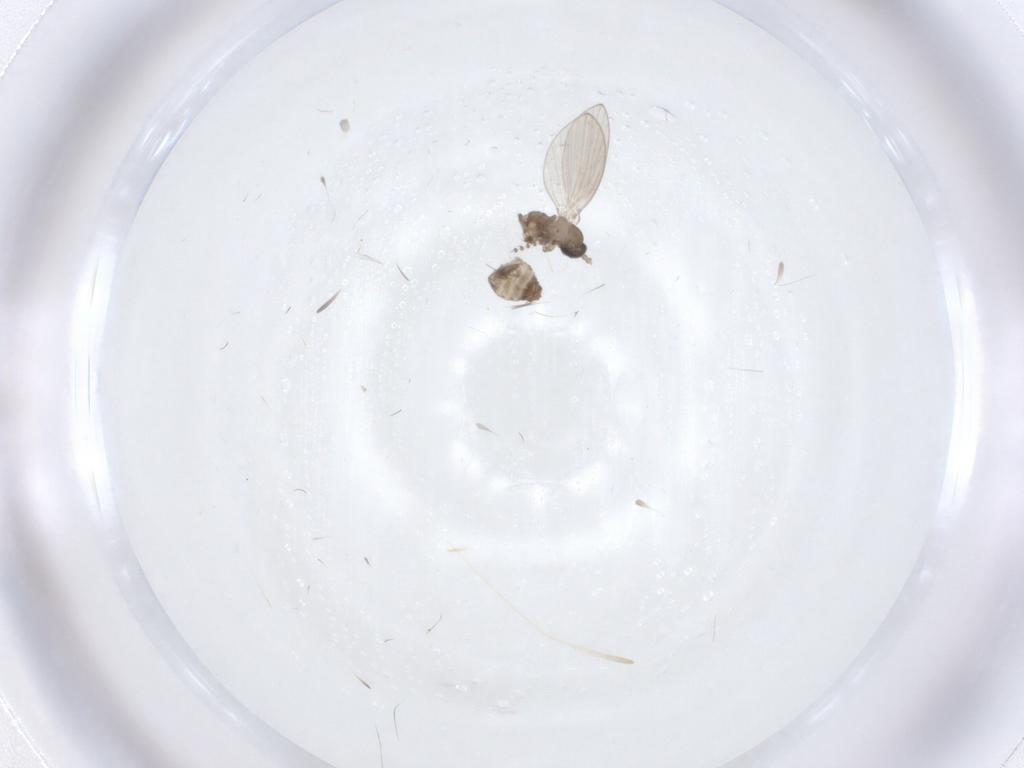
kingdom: Animalia
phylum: Arthropoda
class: Insecta
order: Diptera
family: Psychodidae
